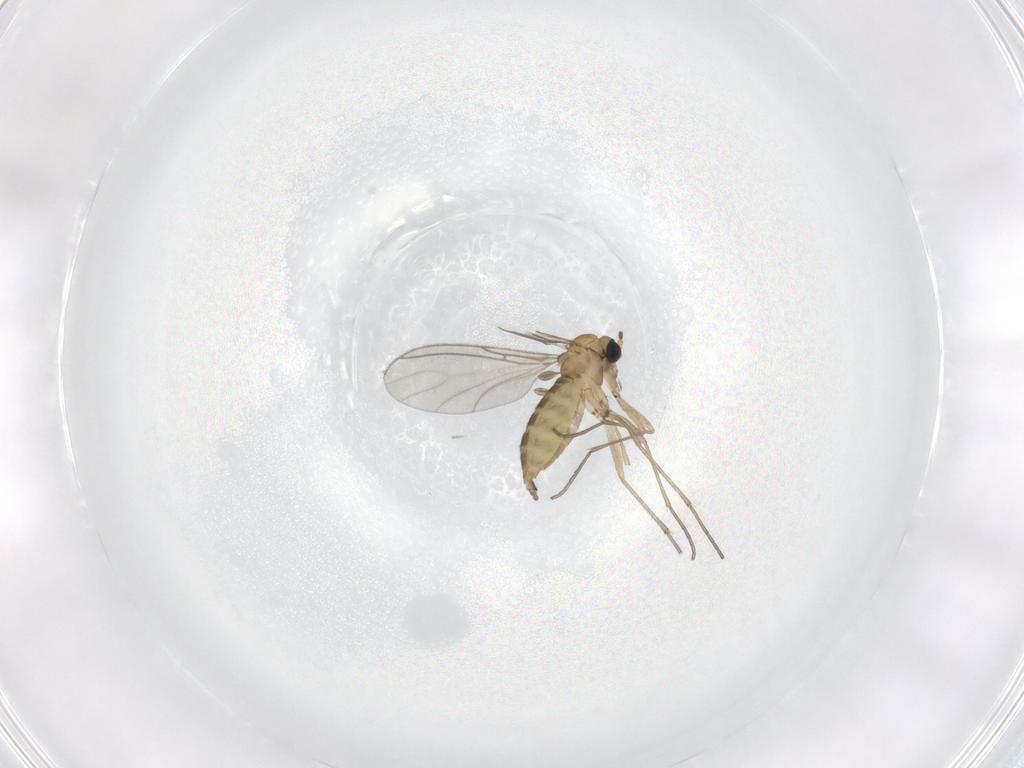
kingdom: Animalia
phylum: Arthropoda
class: Insecta
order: Diptera
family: Sciaridae
